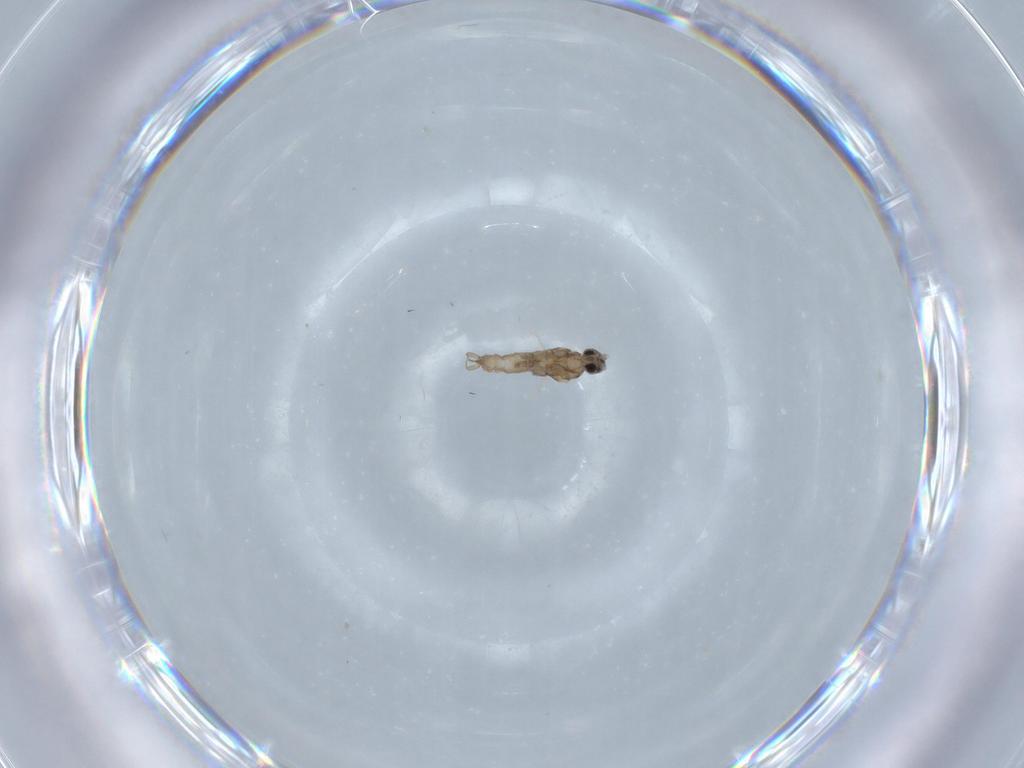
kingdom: Animalia
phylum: Arthropoda
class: Insecta
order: Diptera
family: Cecidomyiidae
